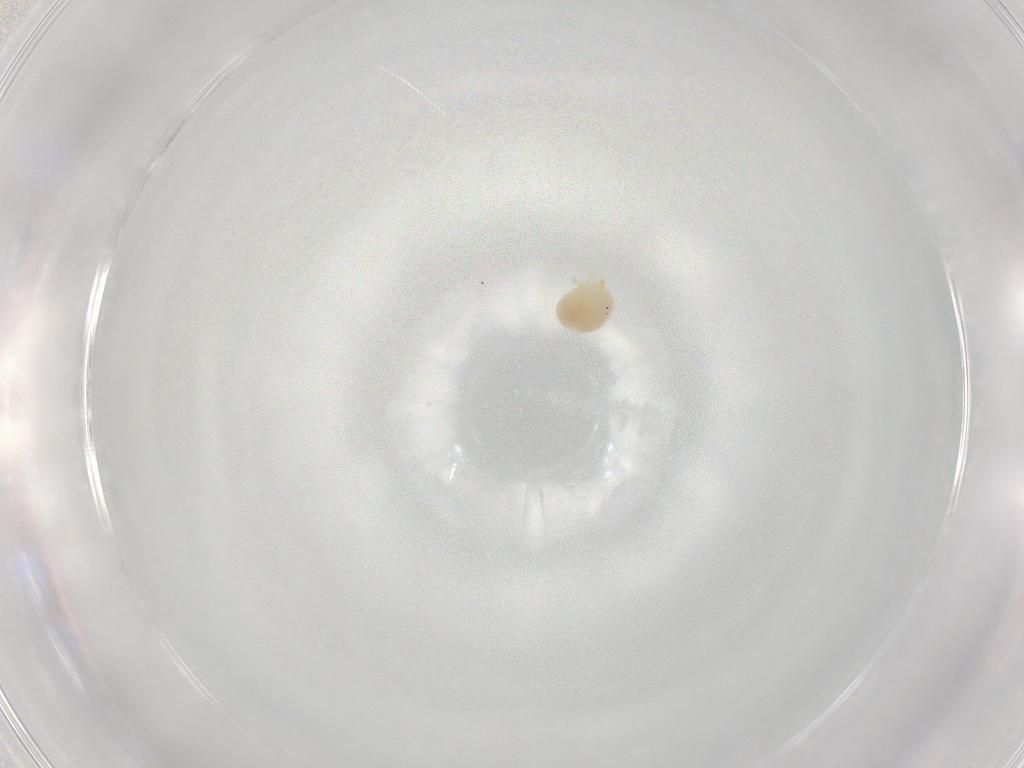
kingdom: Animalia
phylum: Arthropoda
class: Arachnida
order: Trombidiformes
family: Hydryphantidae
